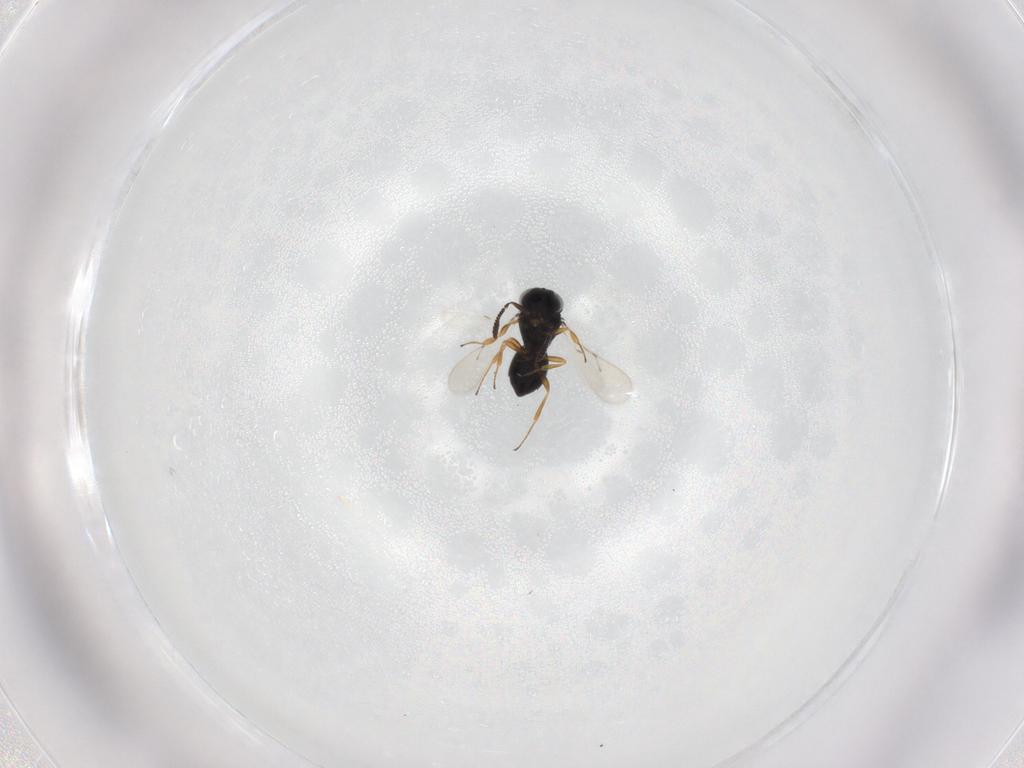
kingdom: Animalia
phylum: Arthropoda
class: Insecta
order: Hymenoptera
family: Scelionidae
